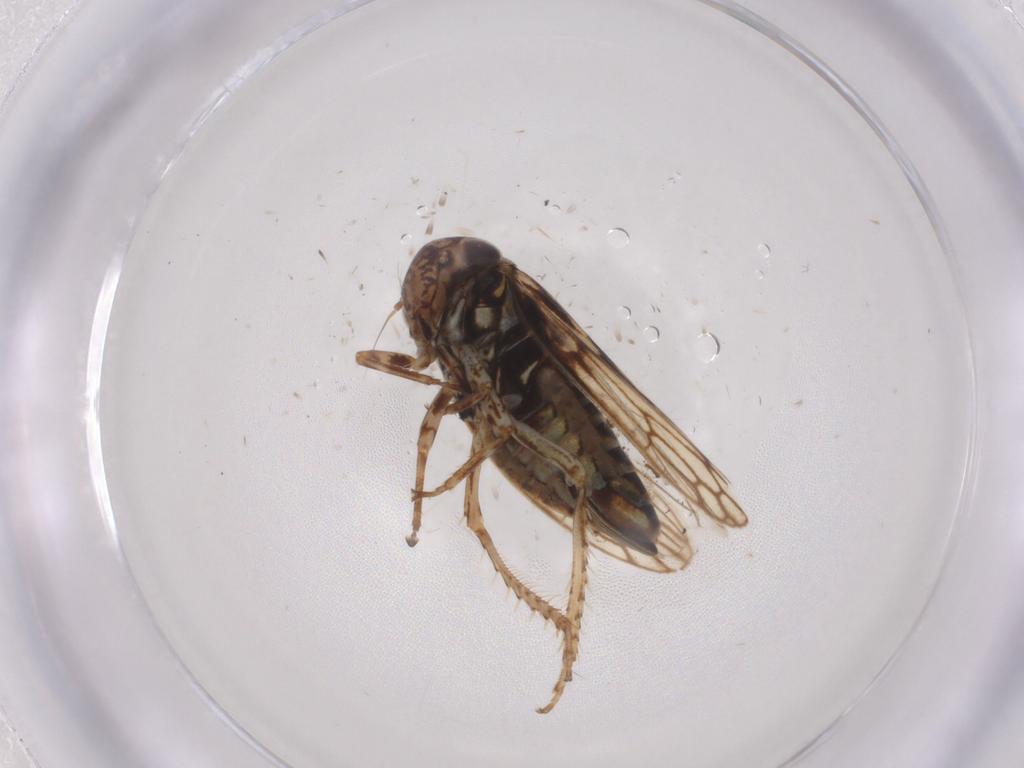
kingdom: Animalia
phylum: Arthropoda
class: Insecta
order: Hemiptera
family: Cicadellidae
